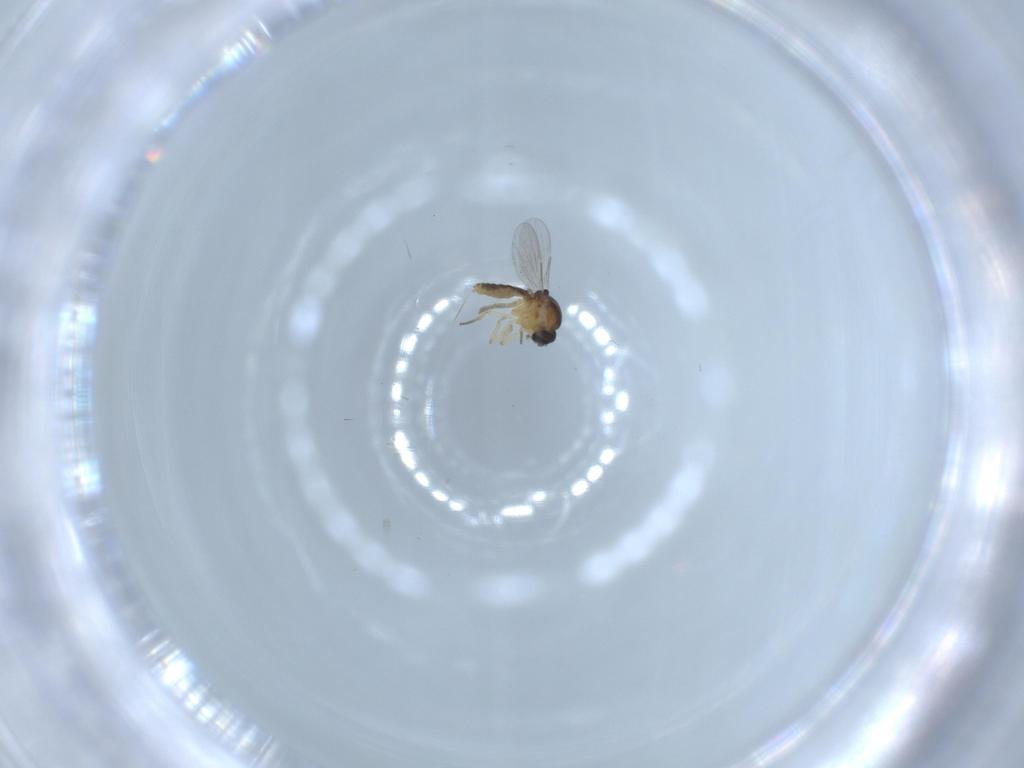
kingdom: Animalia
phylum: Arthropoda
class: Insecta
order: Diptera
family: Ceratopogonidae
